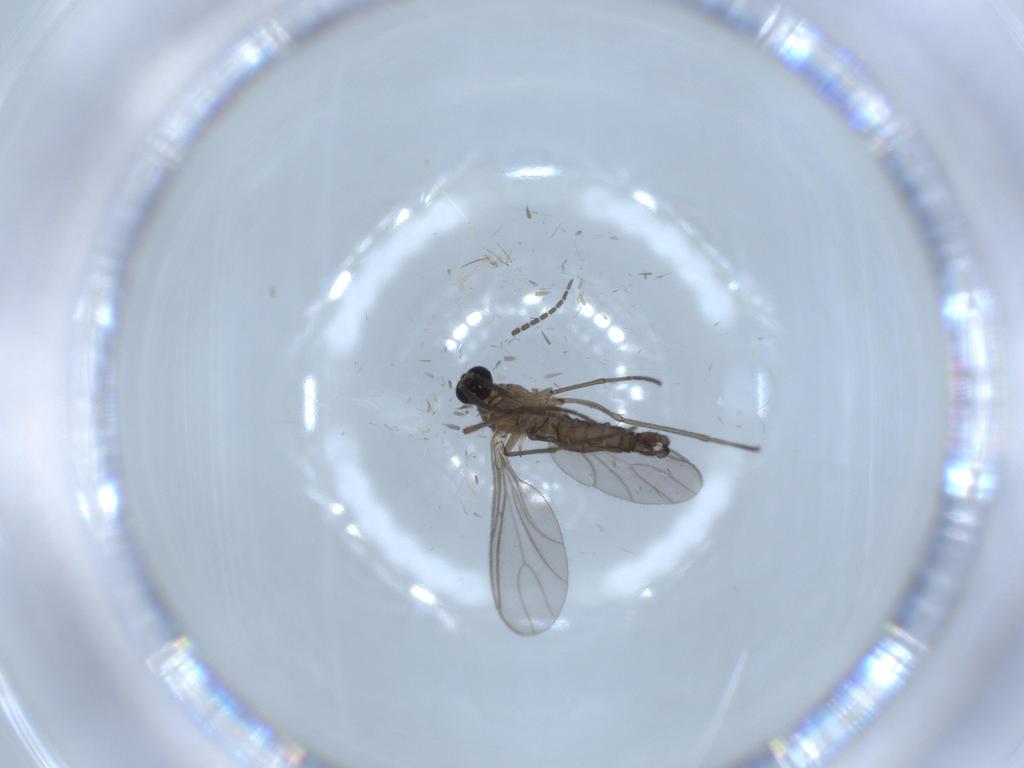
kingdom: Animalia
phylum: Arthropoda
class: Insecta
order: Diptera
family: Sciaridae
